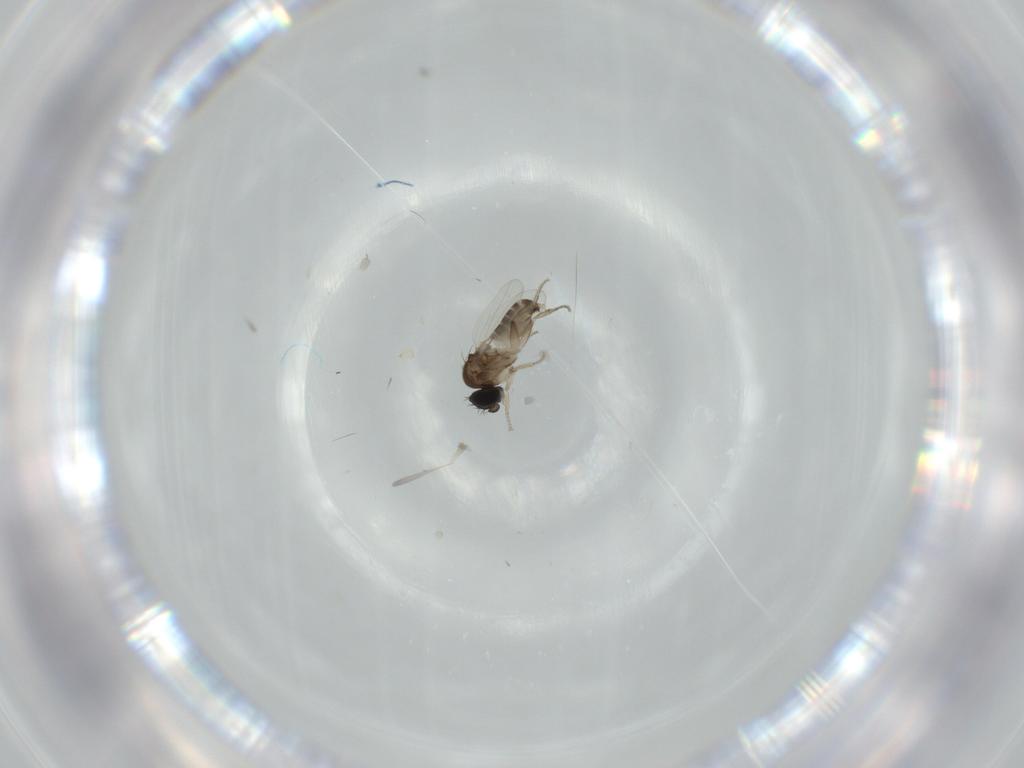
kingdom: Animalia
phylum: Arthropoda
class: Insecta
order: Diptera
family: Phoridae
